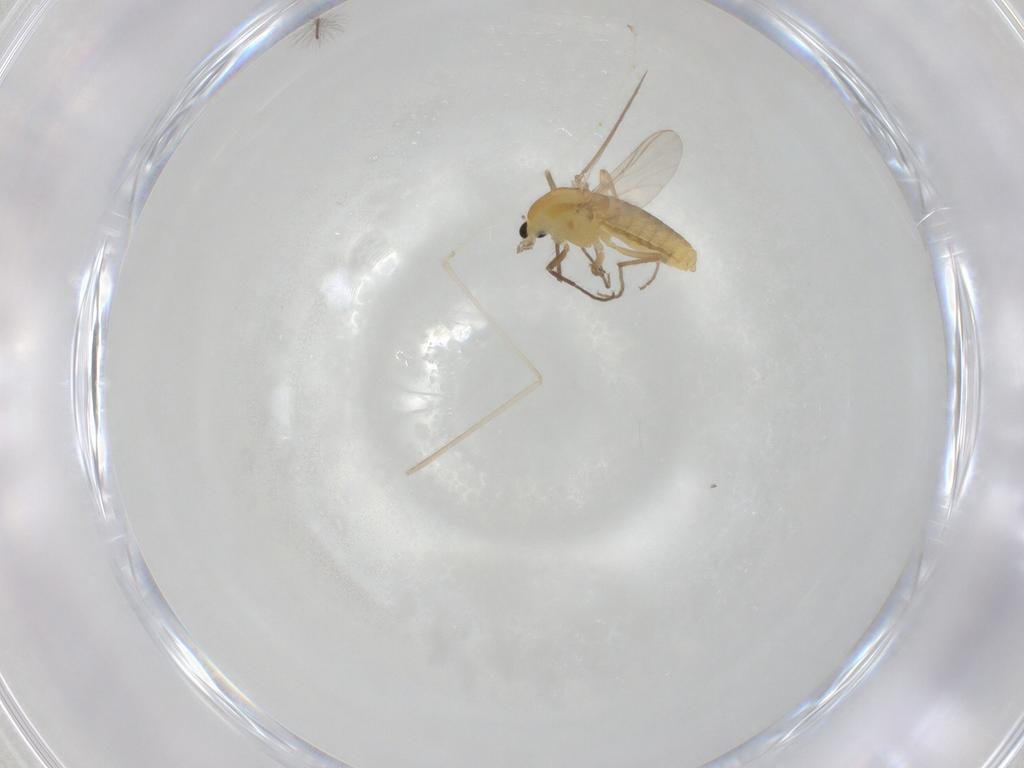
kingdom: Animalia
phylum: Arthropoda
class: Insecta
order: Diptera
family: Chironomidae
